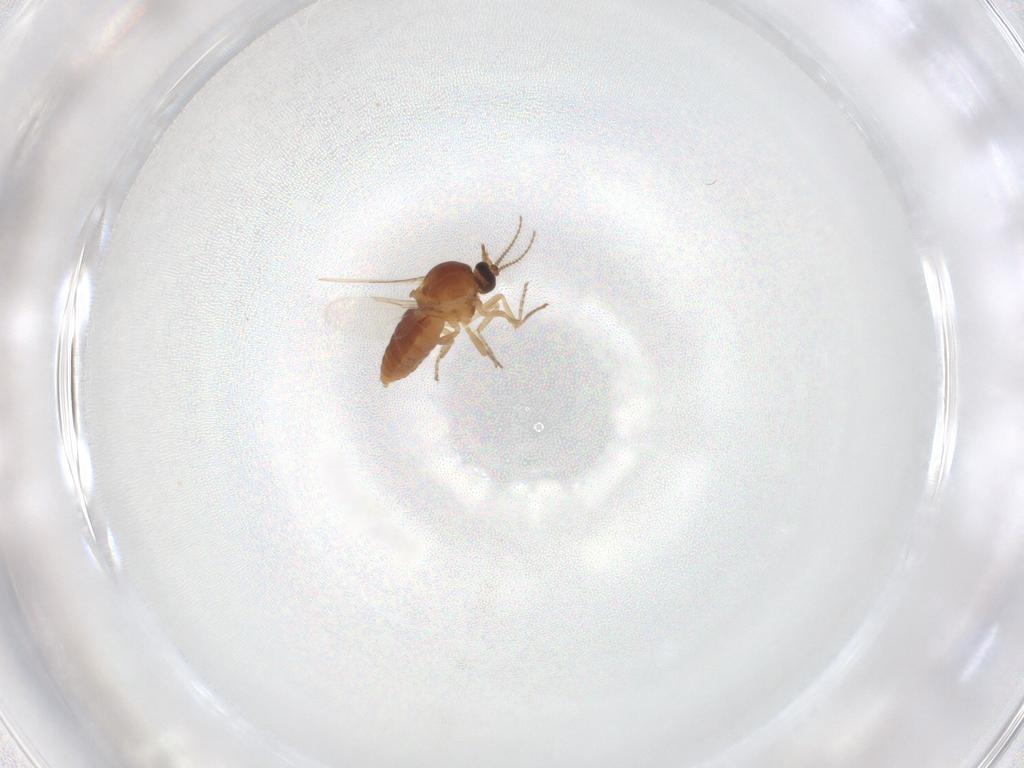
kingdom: Animalia
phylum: Arthropoda
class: Insecta
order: Diptera
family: Ceratopogonidae
